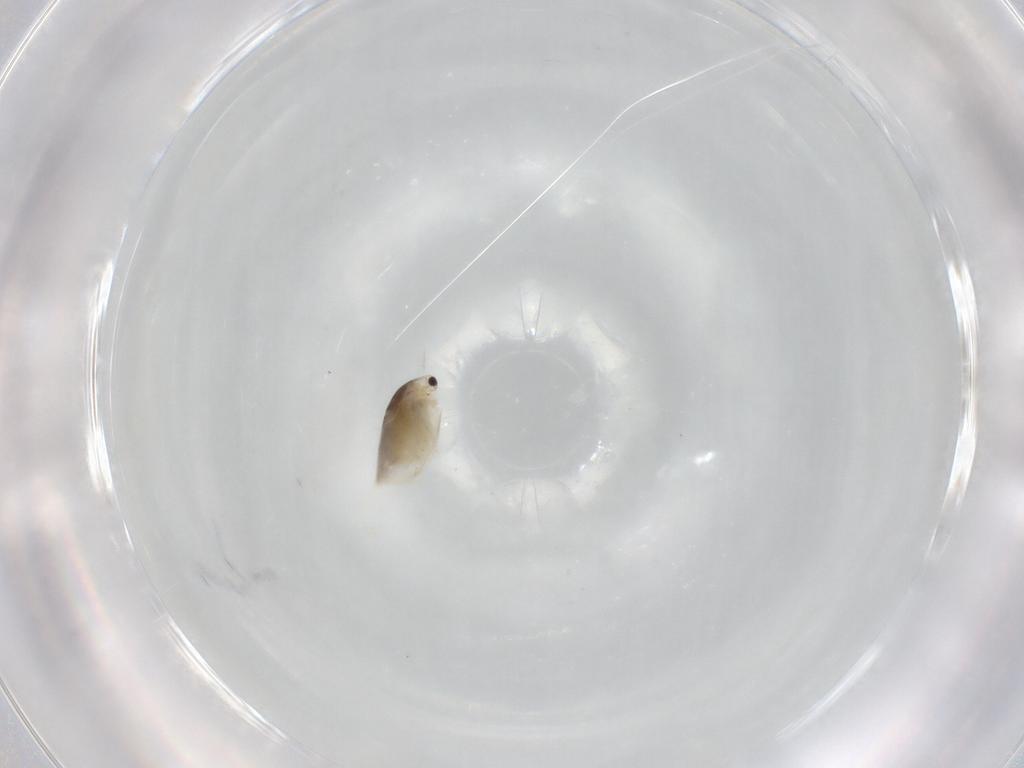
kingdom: Animalia
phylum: Arthropoda
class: Branchiopoda
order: Diplostraca
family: Daphniidae
